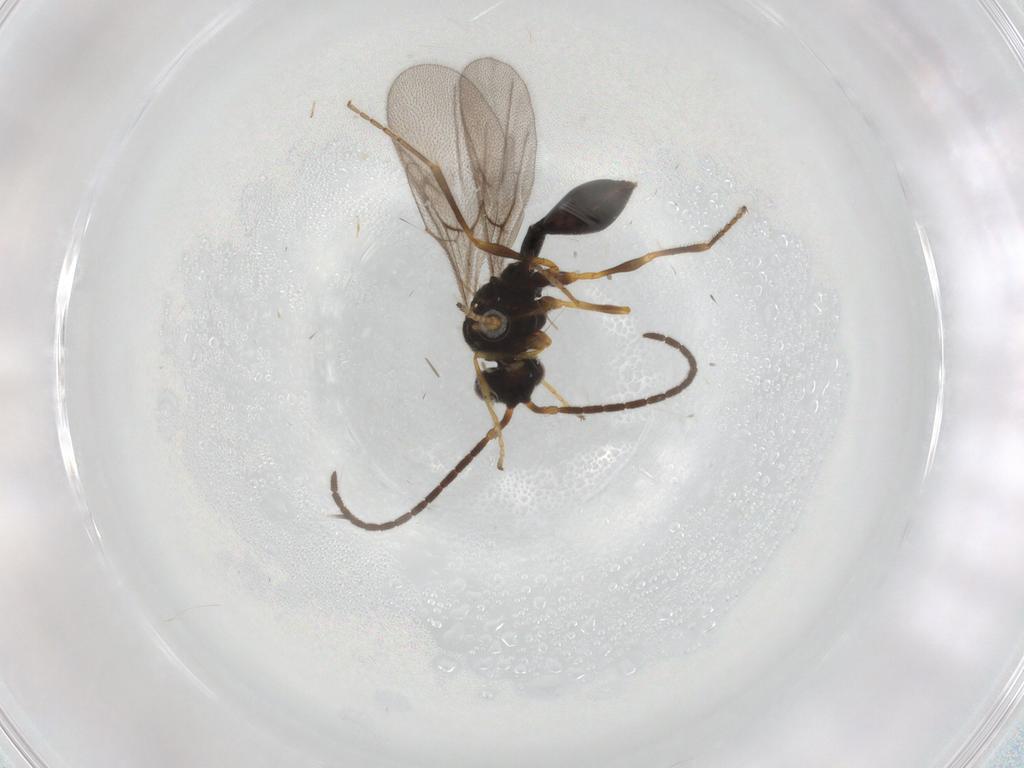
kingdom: Animalia
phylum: Arthropoda
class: Insecta
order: Hymenoptera
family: Diapriidae
